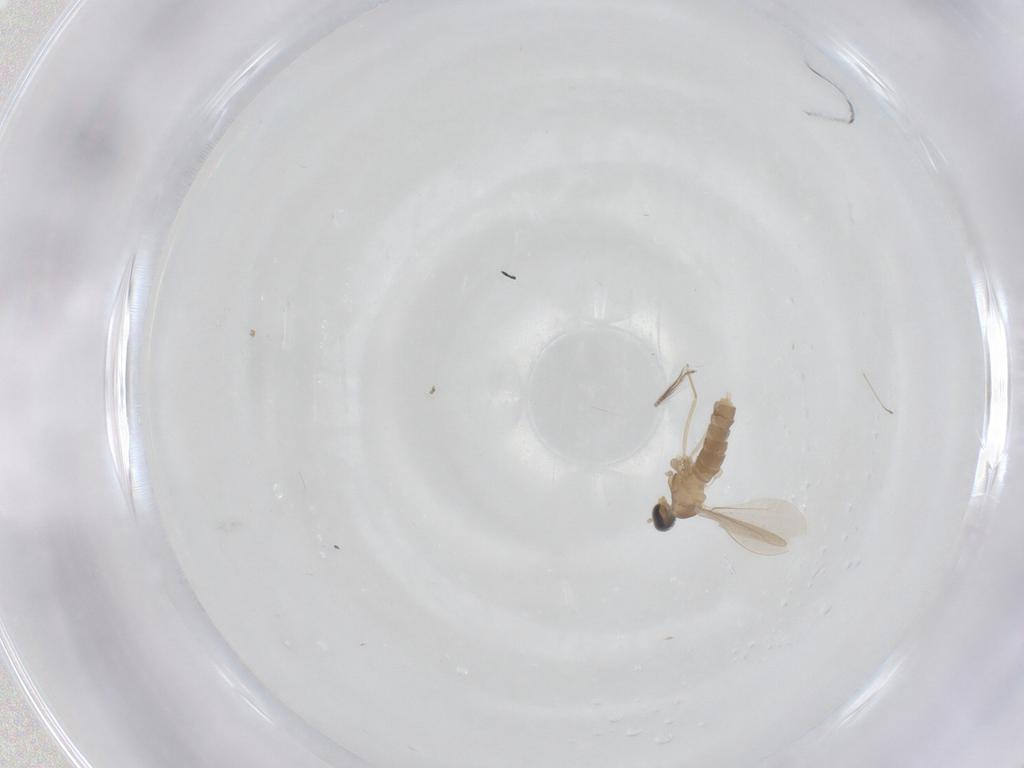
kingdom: Animalia
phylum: Arthropoda
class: Insecta
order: Diptera
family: Cecidomyiidae
